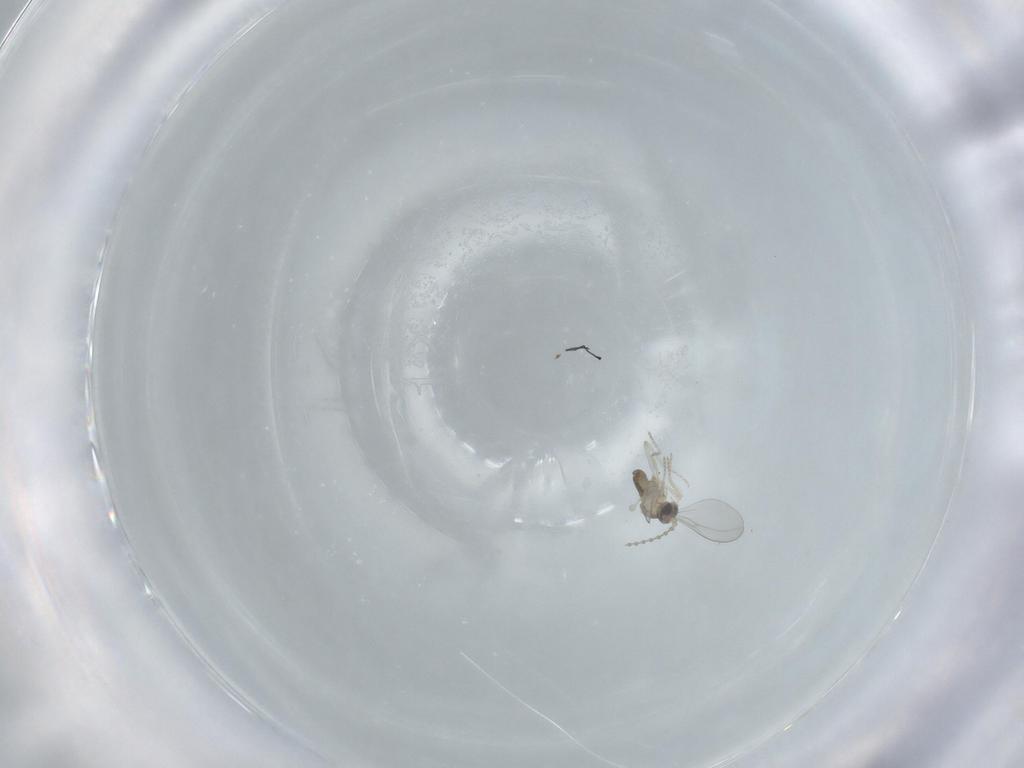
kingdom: Animalia
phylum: Arthropoda
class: Insecta
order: Diptera
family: Cecidomyiidae
